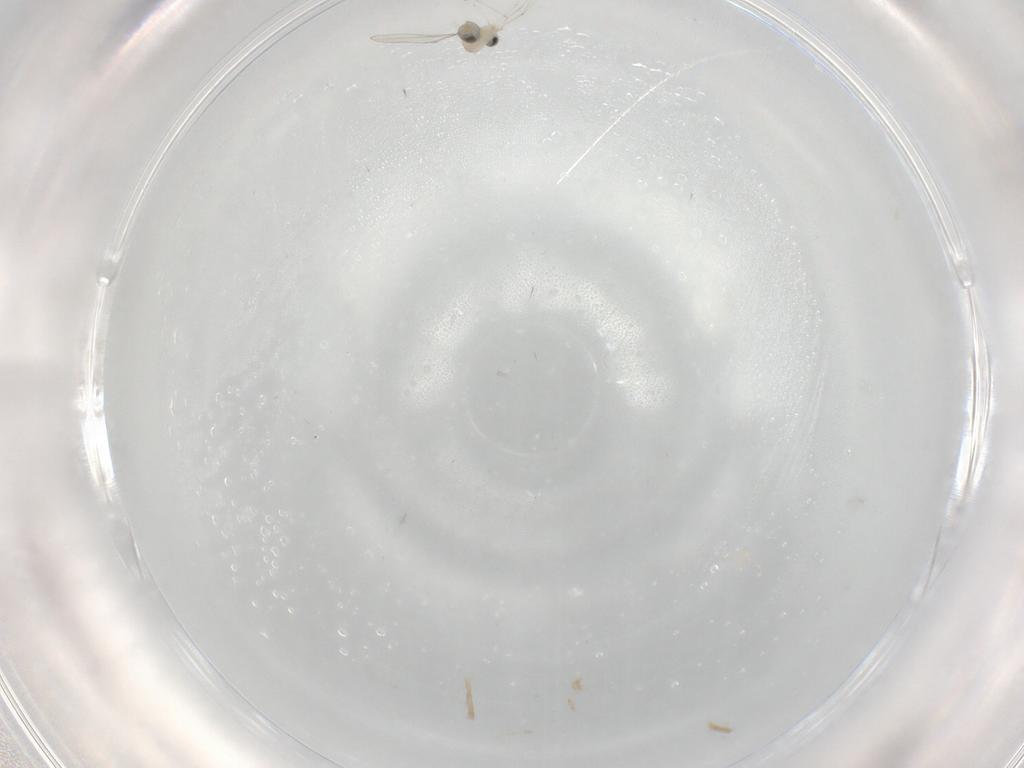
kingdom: Animalia
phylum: Arthropoda
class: Insecta
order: Diptera
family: Cecidomyiidae
